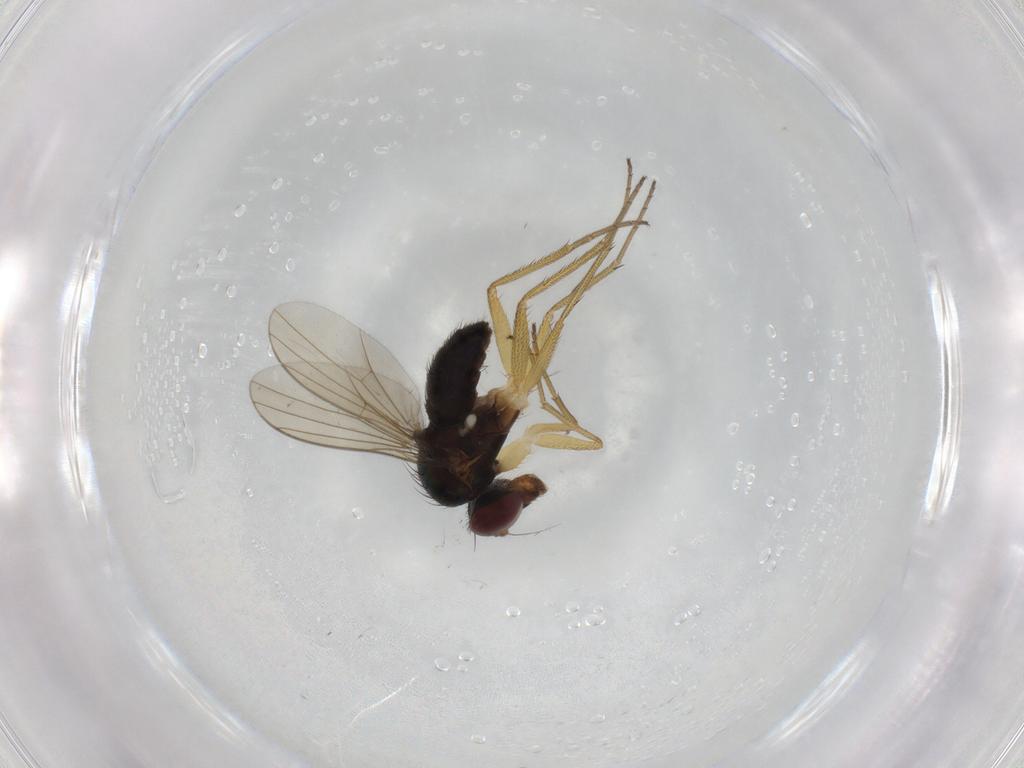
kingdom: Animalia
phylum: Arthropoda
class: Insecta
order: Diptera
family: Dolichopodidae
